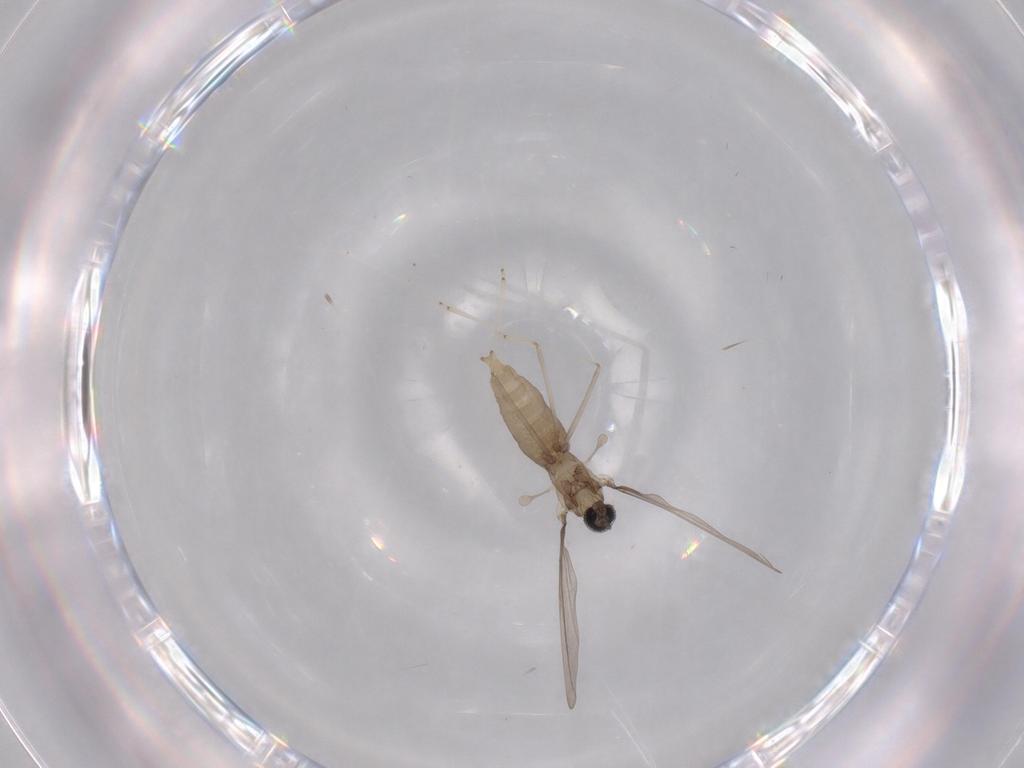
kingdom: Animalia
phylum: Arthropoda
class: Insecta
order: Diptera
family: Cecidomyiidae
